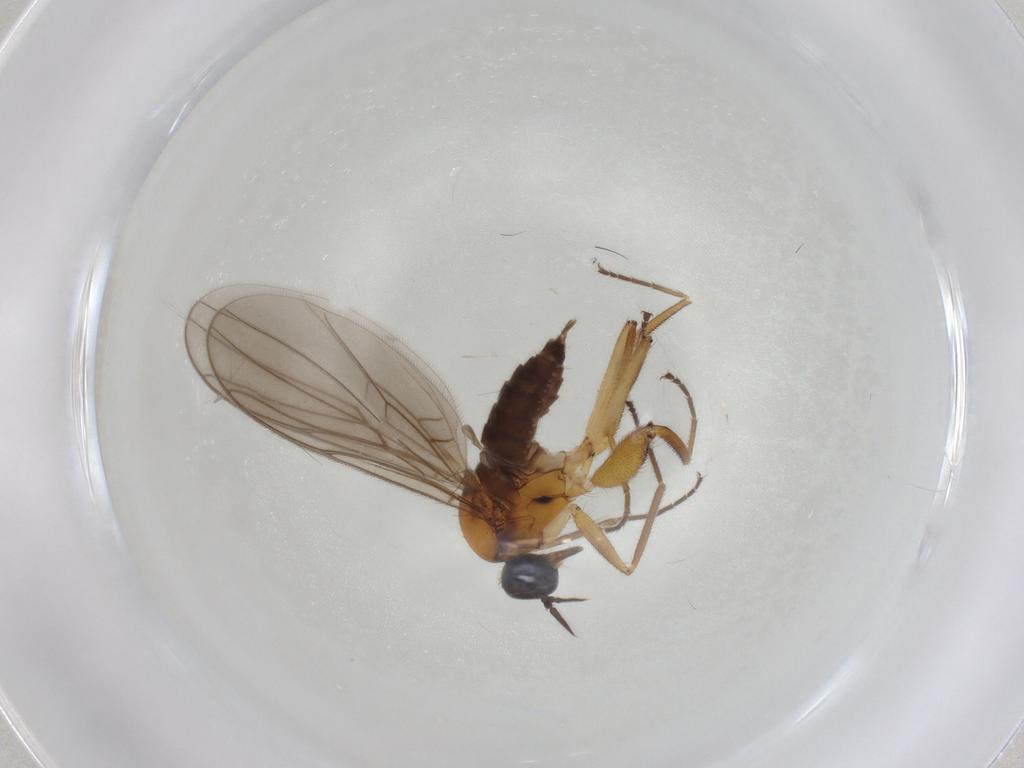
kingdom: Animalia
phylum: Arthropoda
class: Insecta
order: Diptera
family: Hybotidae
